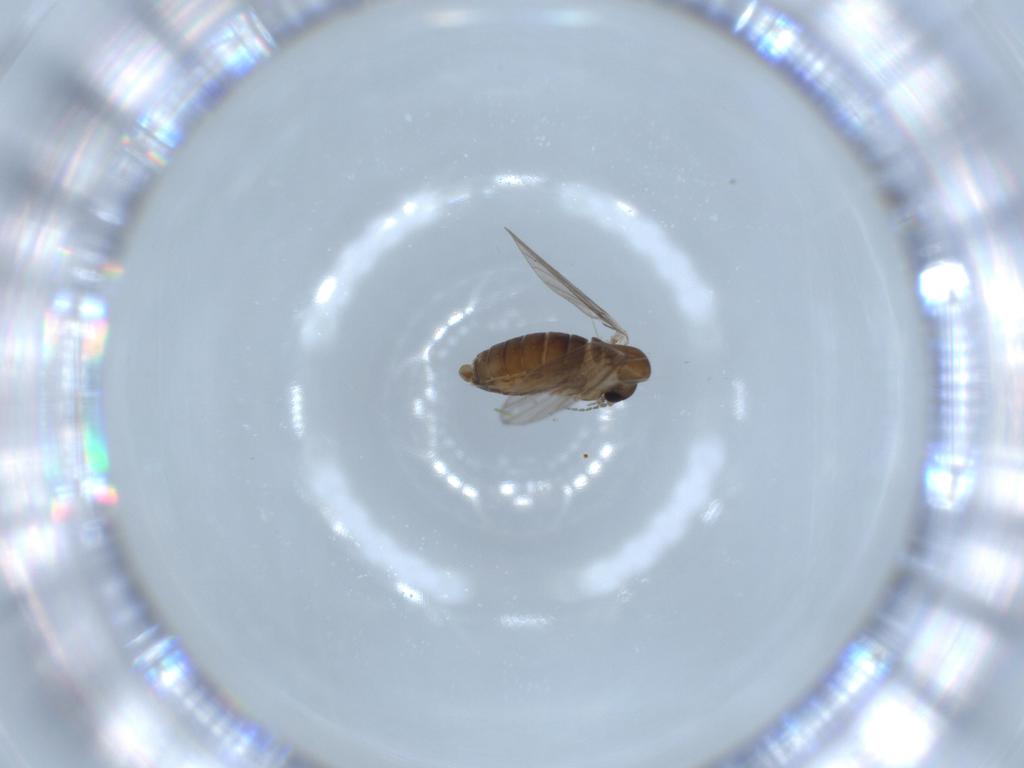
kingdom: Animalia
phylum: Arthropoda
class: Insecta
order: Diptera
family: Psychodidae
